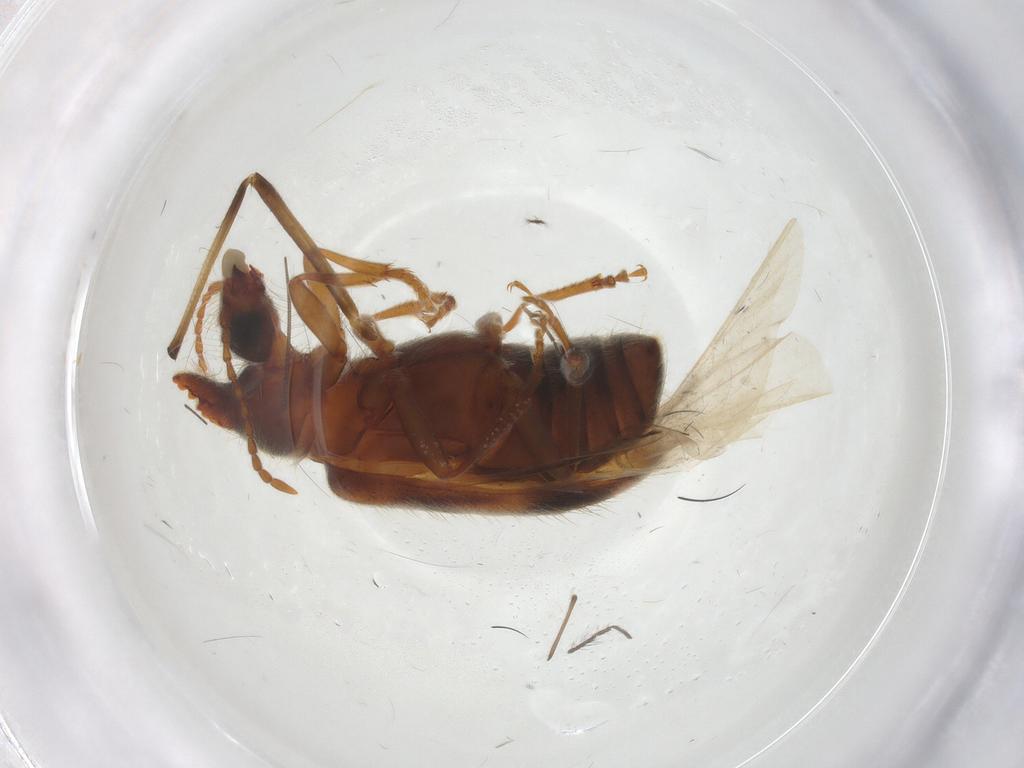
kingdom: Animalia
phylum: Arthropoda
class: Insecta
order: Coleoptera
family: Anthicidae
